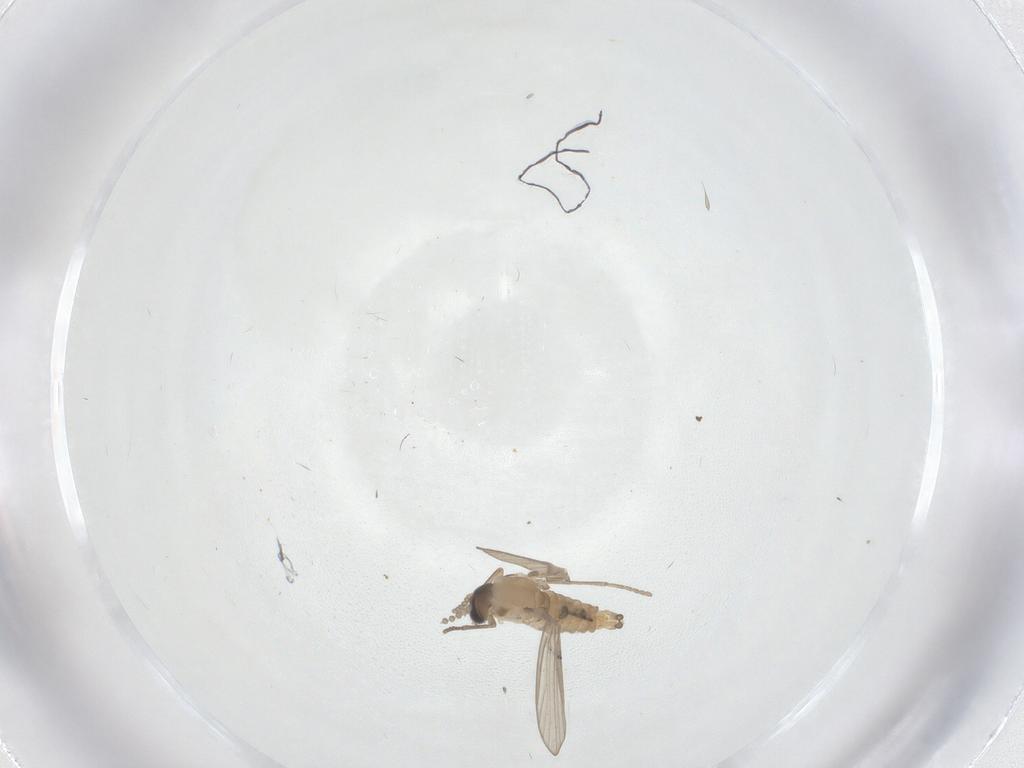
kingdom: Animalia
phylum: Arthropoda
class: Insecta
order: Diptera
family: Psychodidae
